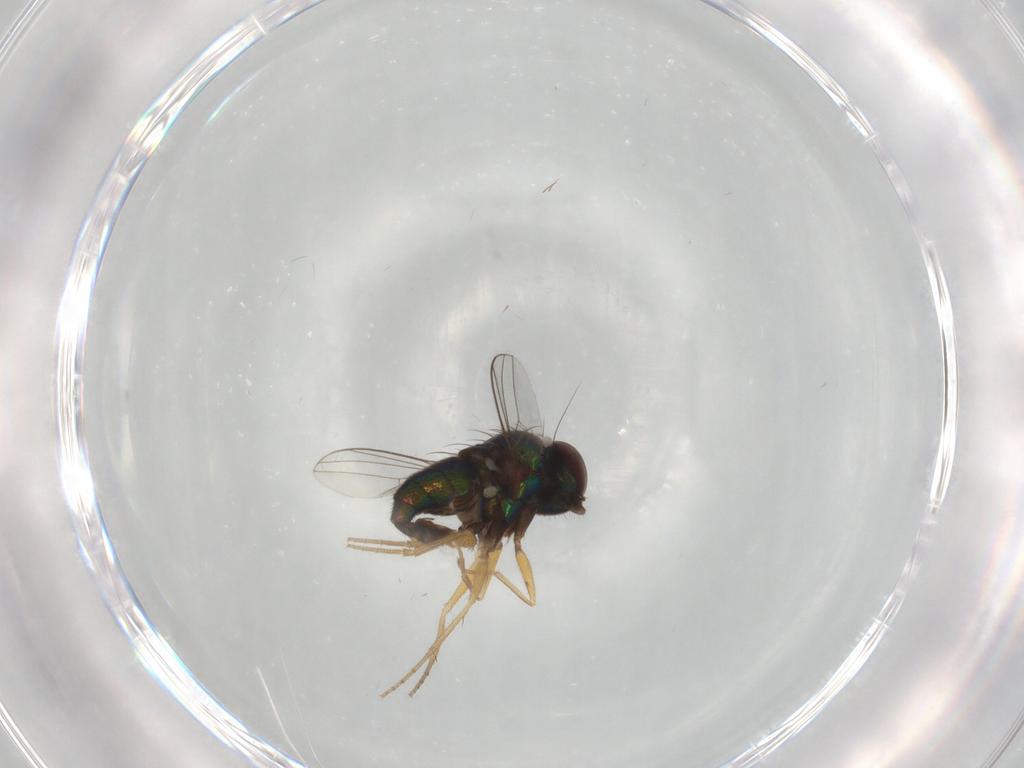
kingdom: Animalia
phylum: Arthropoda
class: Insecta
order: Diptera
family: Dolichopodidae
